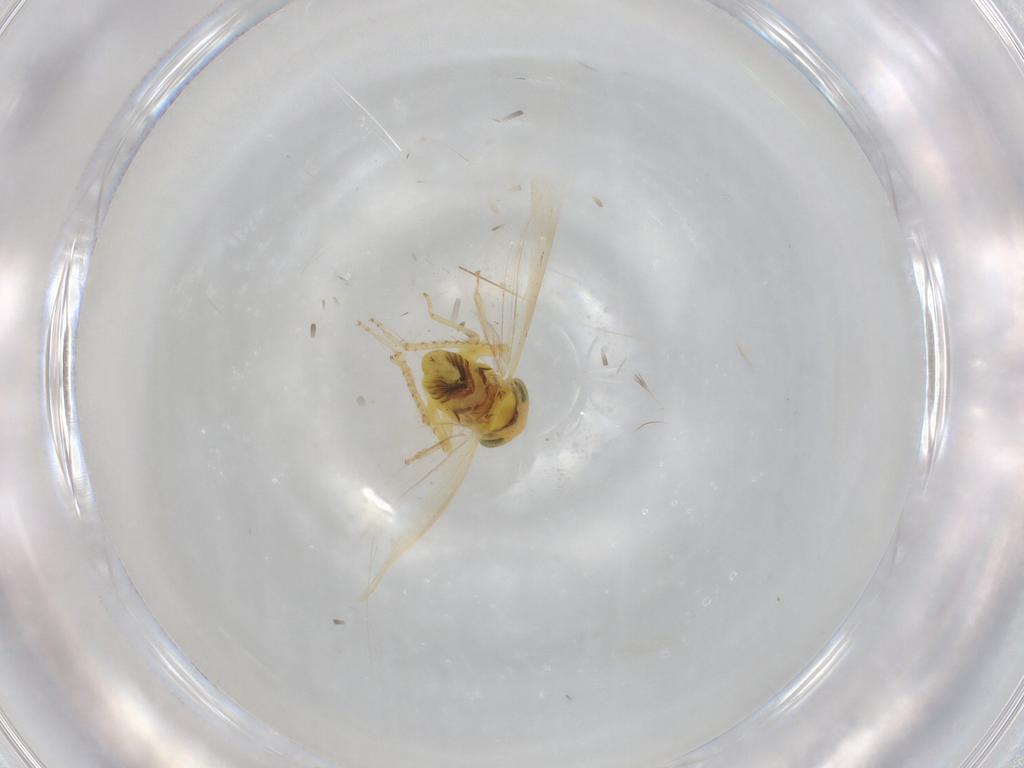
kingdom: Animalia
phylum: Arthropoda
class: Insecta
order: Hemiptera
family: Cicadellidae
